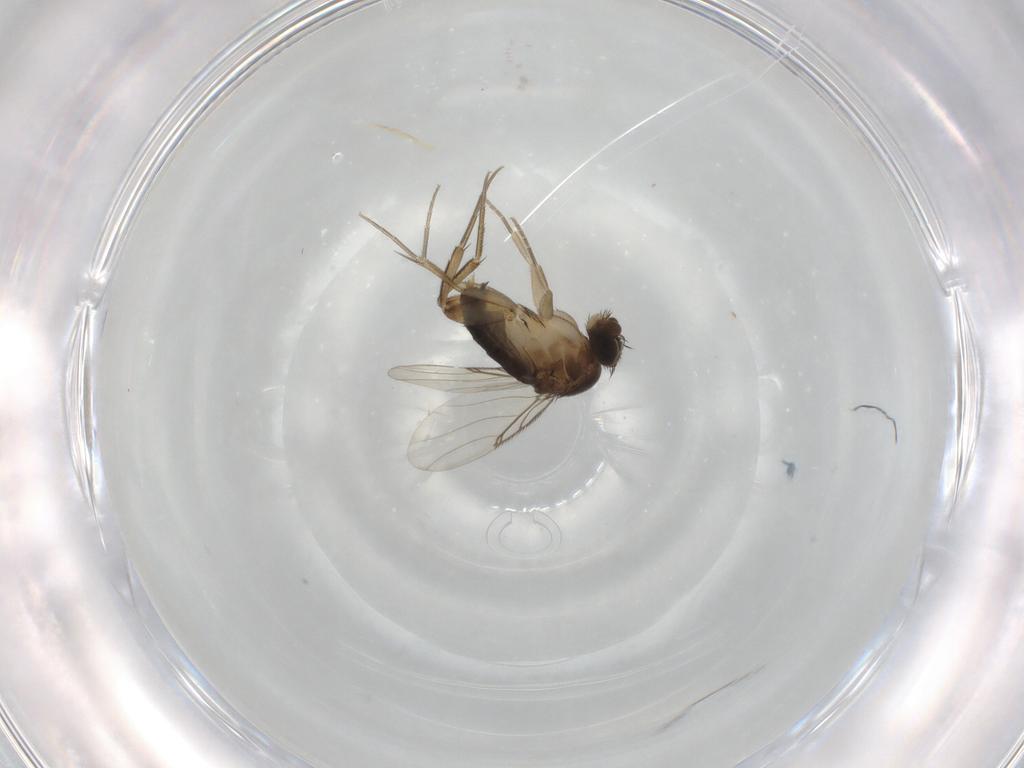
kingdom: Animalia
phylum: Arthropoda
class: Insecta
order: Diptera
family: Phoridae
